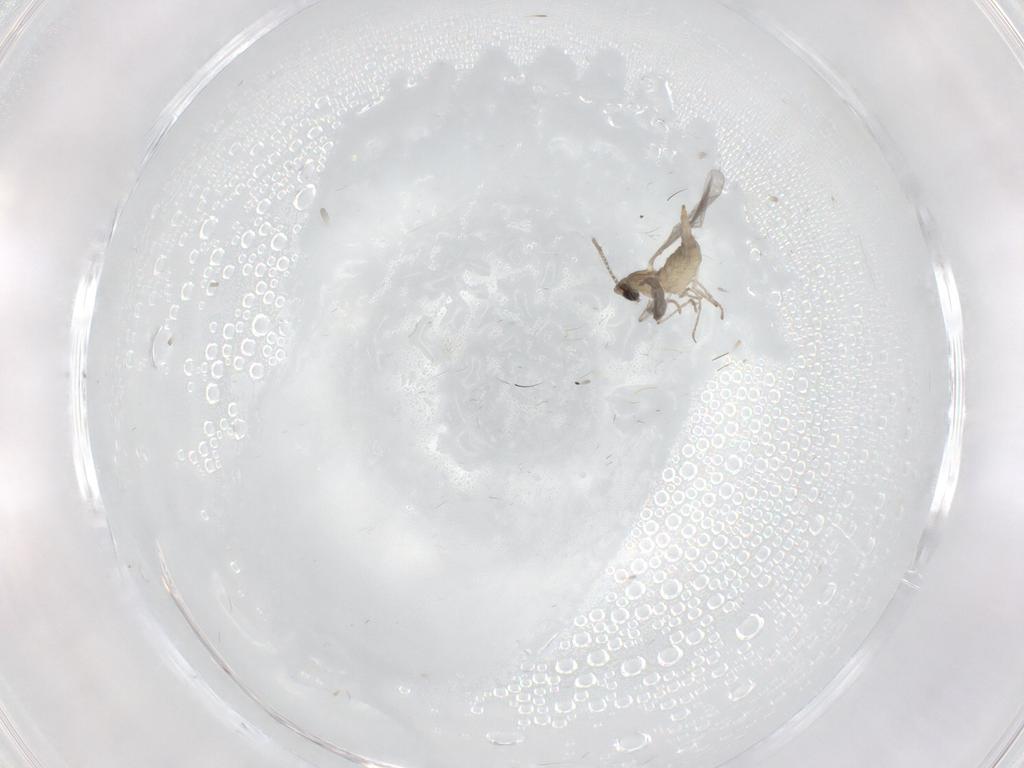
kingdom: Animalia
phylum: Arthropoda
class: Insecta
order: Diptera
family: Cecidomyiidae
